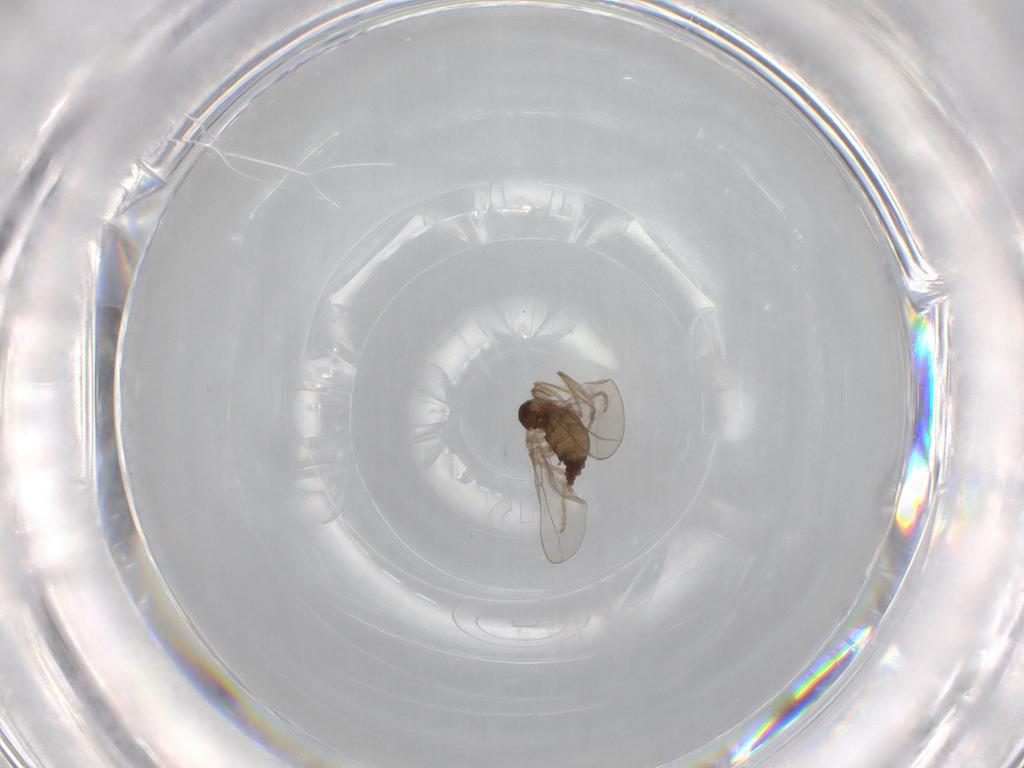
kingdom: Animalia
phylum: Arthropoda
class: Insecta
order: Diptera
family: Cecidomyiidae
